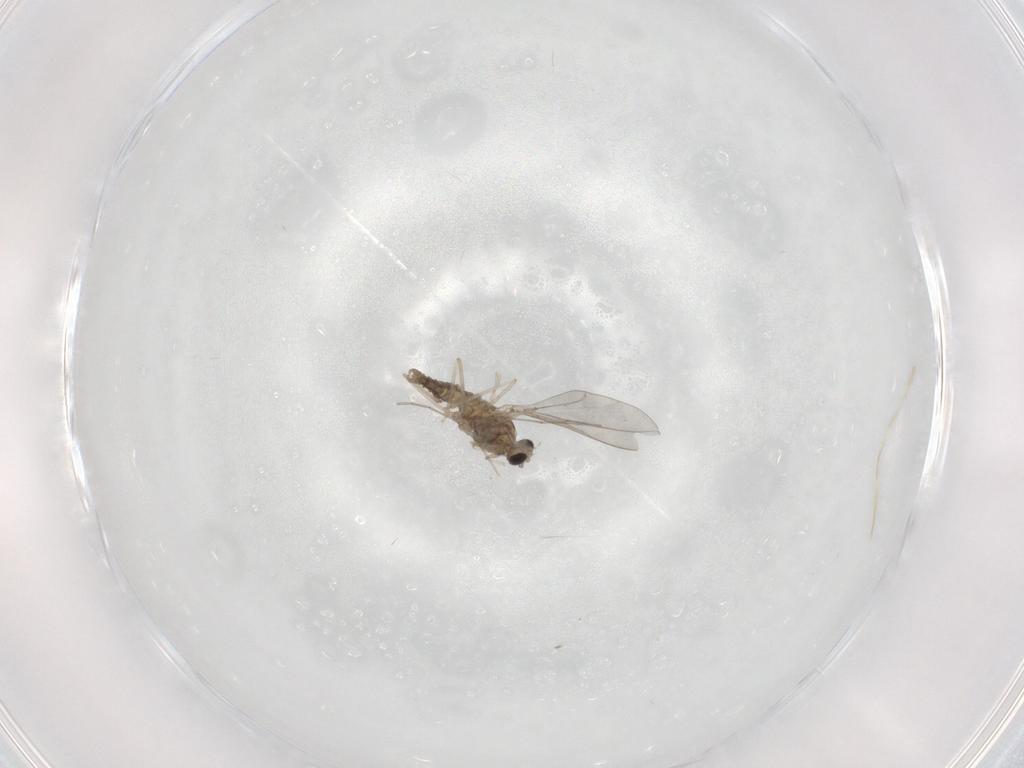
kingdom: Animalia
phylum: Arthropoda
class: Insecta
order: Diptera
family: Cecidomyiidae
